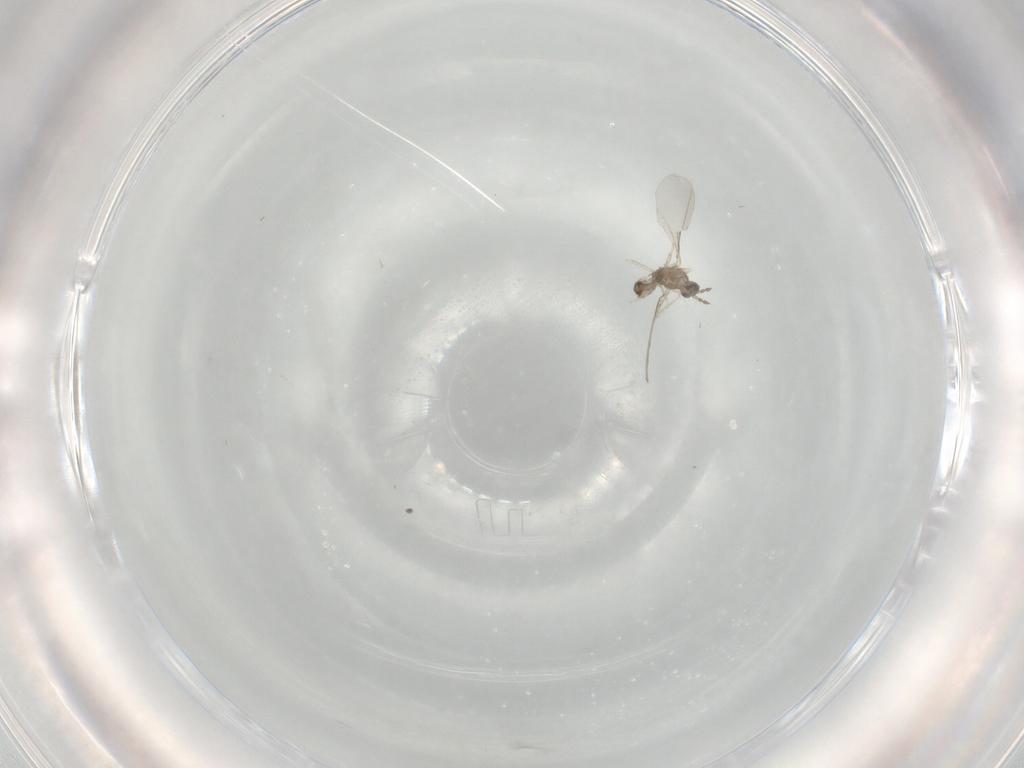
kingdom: Animalia
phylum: Arthropoda
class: Insecta
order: Diptera
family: Cecidomyiidae
